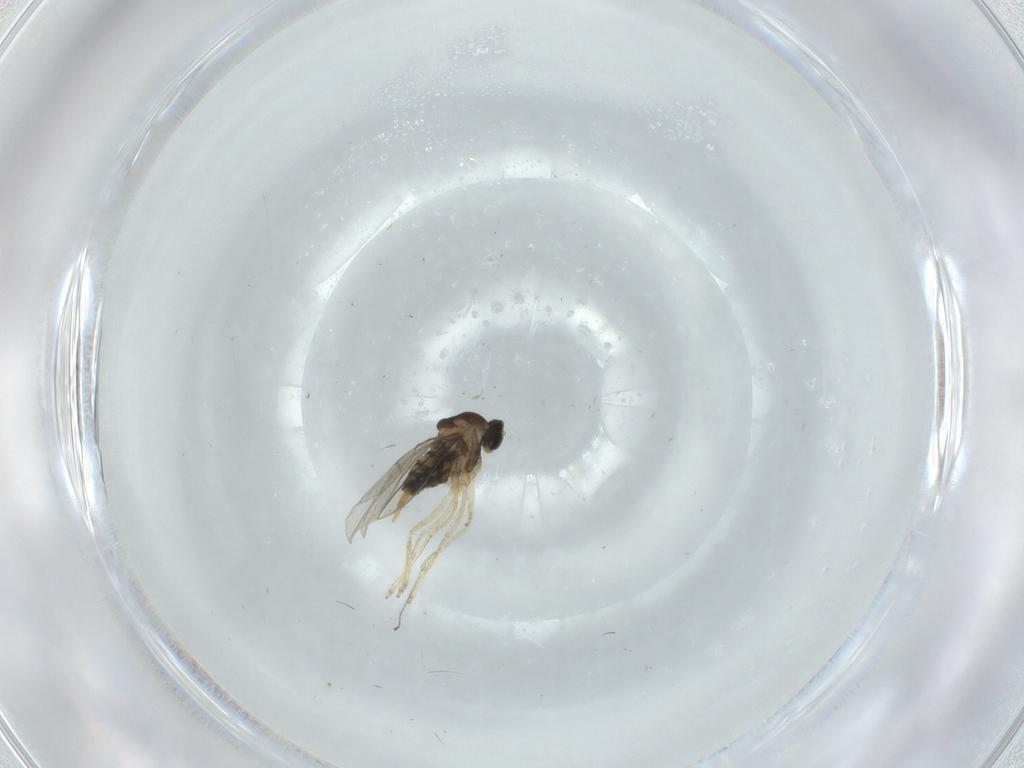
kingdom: Animalia
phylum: Arthropoda
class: Insecta
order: Diptera
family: Cecidomyiidae
